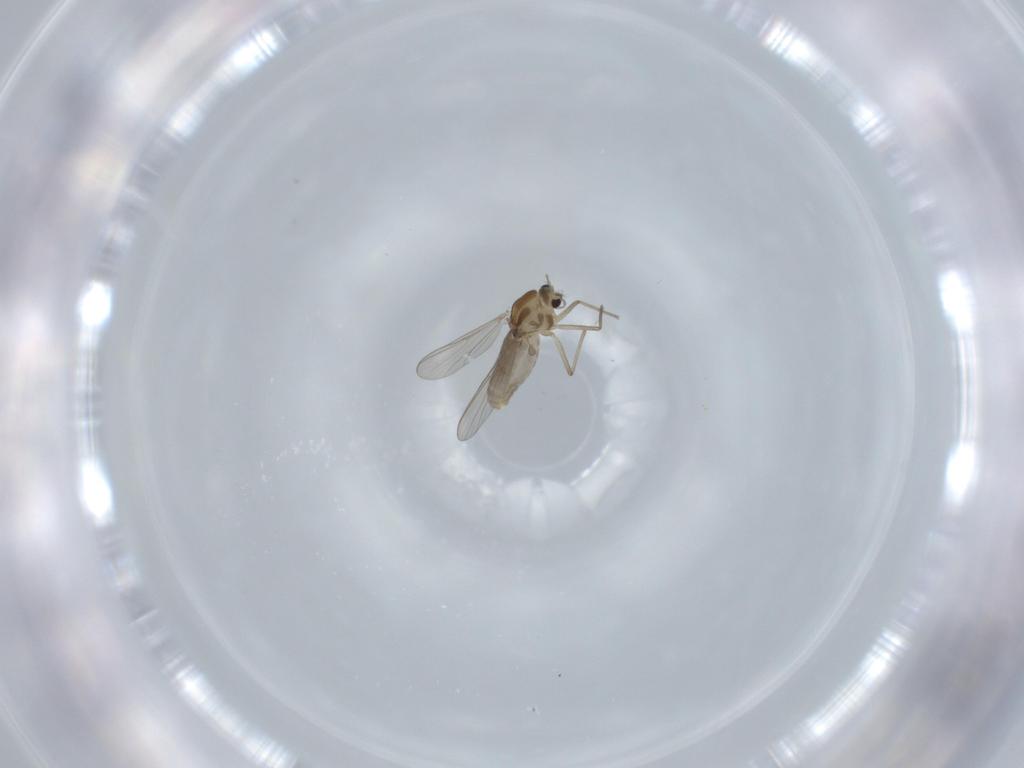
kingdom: Animalia
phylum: Arthropoda
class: Insecta
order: Diptera
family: Chironomidae
